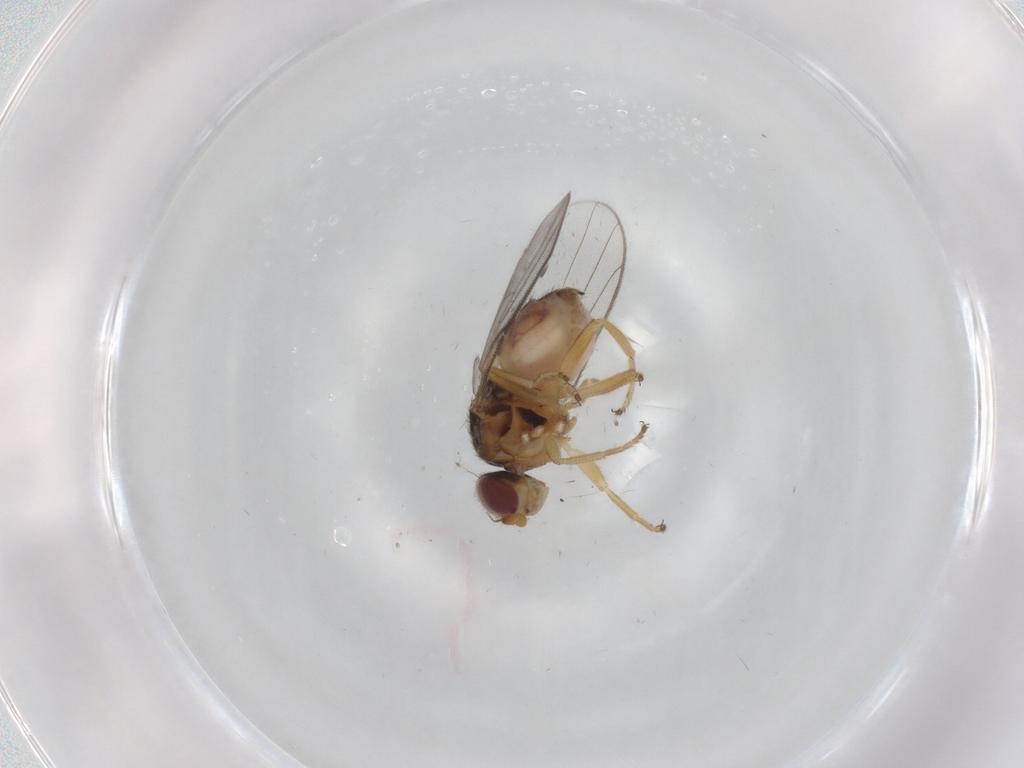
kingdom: Animalia
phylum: Arthropoda
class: Insecta
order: Diptera
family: Chloropidae
